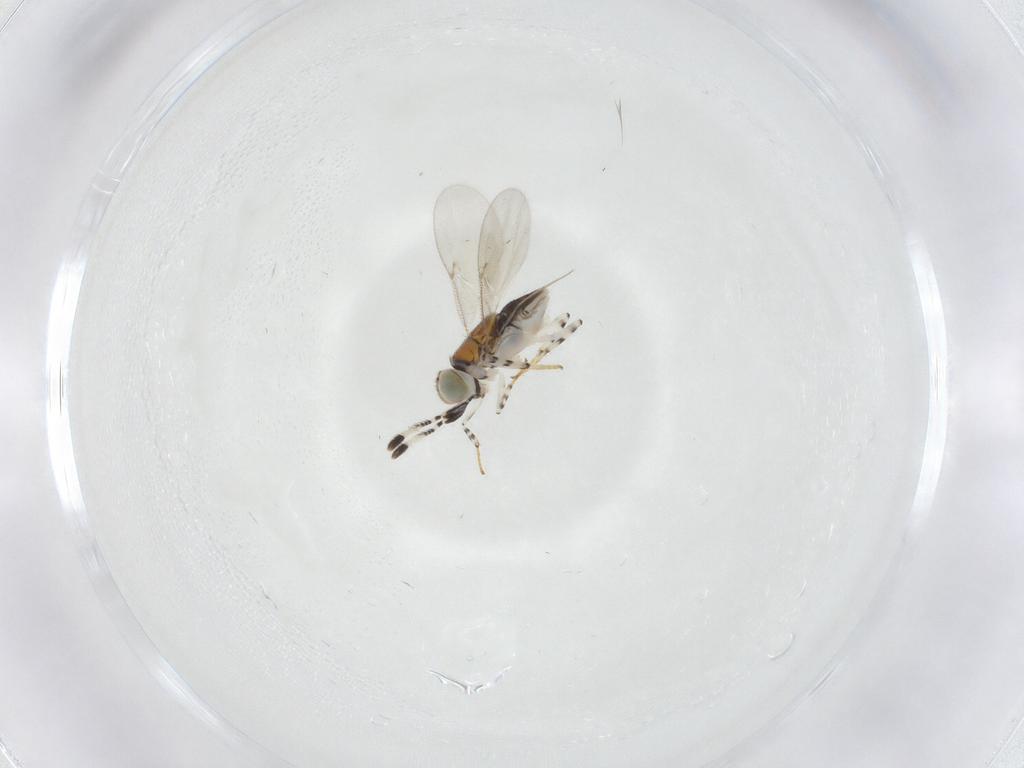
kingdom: Animalia
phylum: Arthropoda
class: Insecta
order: Hymenoptera
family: Encyrtidae
